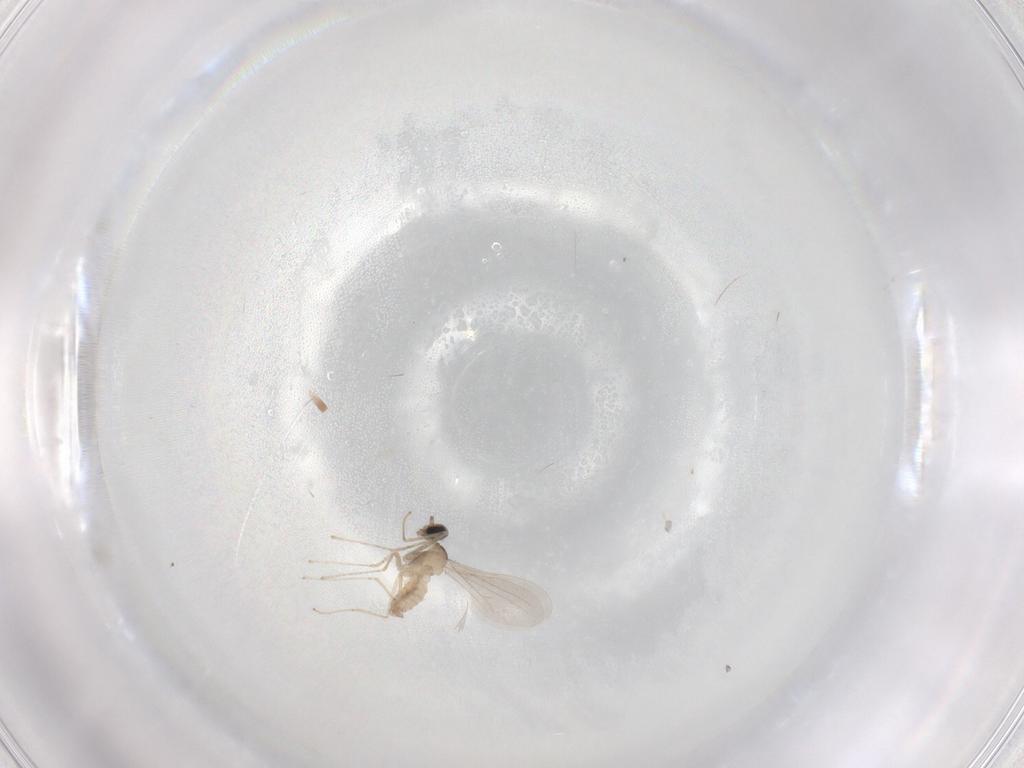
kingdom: Animalia
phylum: Arthropoda
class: Insecta
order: Diptera
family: Cecidomyiidae
